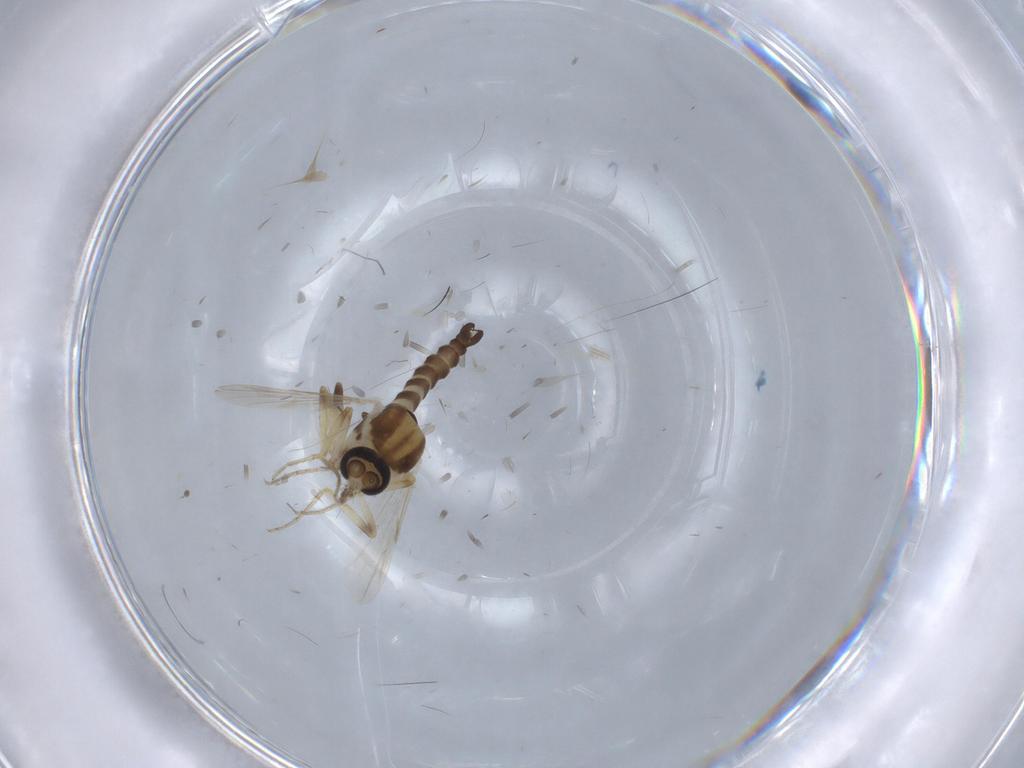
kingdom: Animalia
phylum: Arthropoda
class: Insecta
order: Diptera
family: Ceratopogonidae
